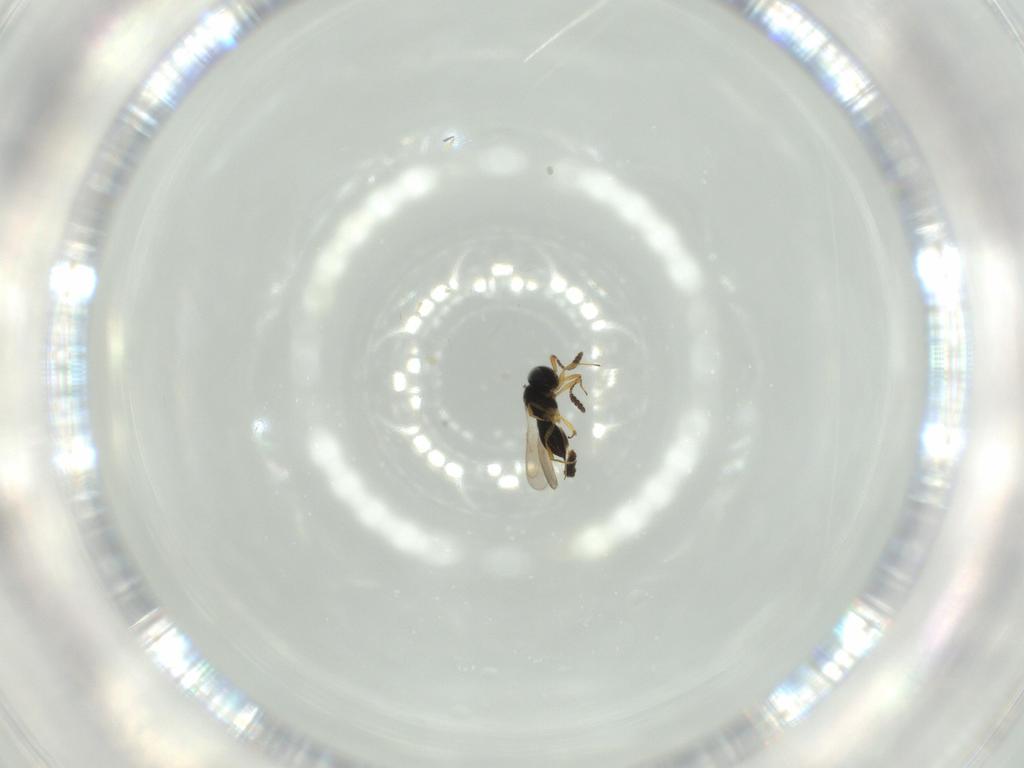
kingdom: Animalia
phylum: Arthropoda
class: Insecta
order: Hymenoptera
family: Scelionidae
